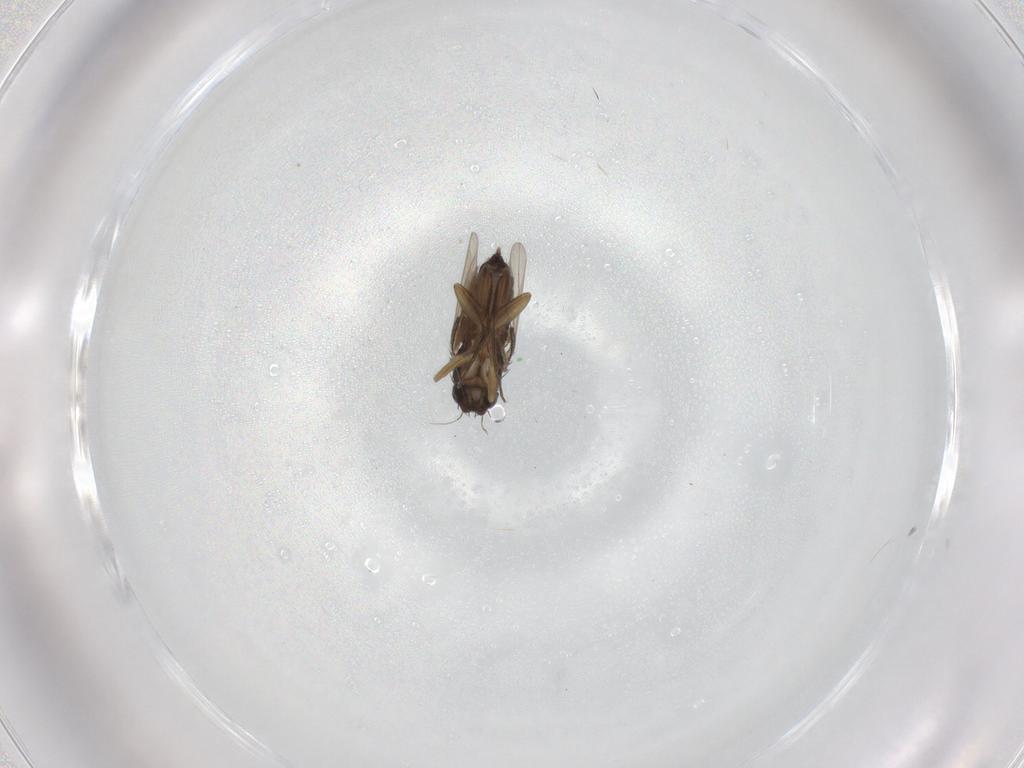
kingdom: Animalia
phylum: Arthropoda
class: Insecta
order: Diptera
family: Phoridae
